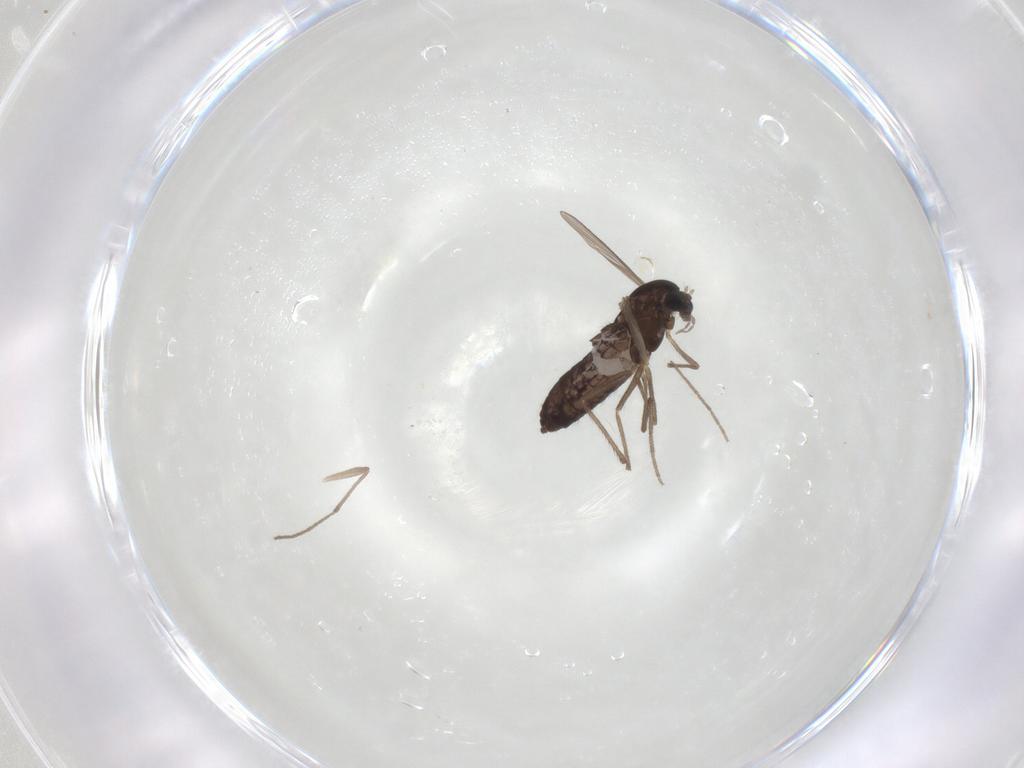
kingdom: Animalia
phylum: Arthropoda
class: Insecta
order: Diptera
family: Chironomidae
